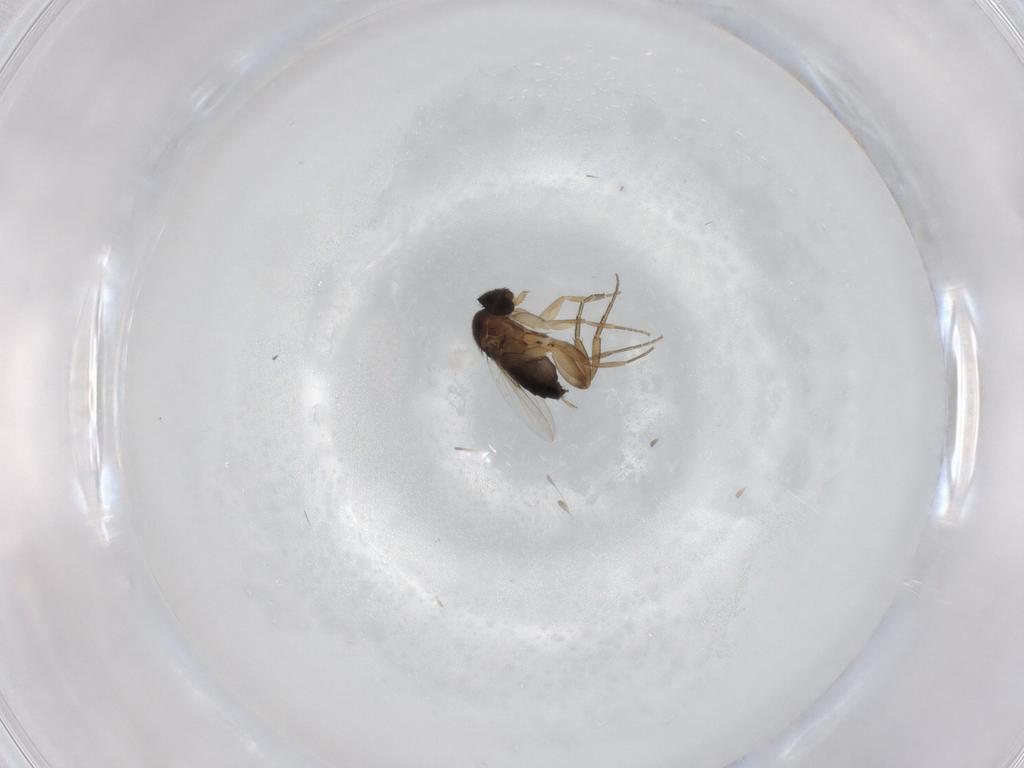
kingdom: Animalia
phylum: Arthropoda
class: Insecta
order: Diptera
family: Phoridae
